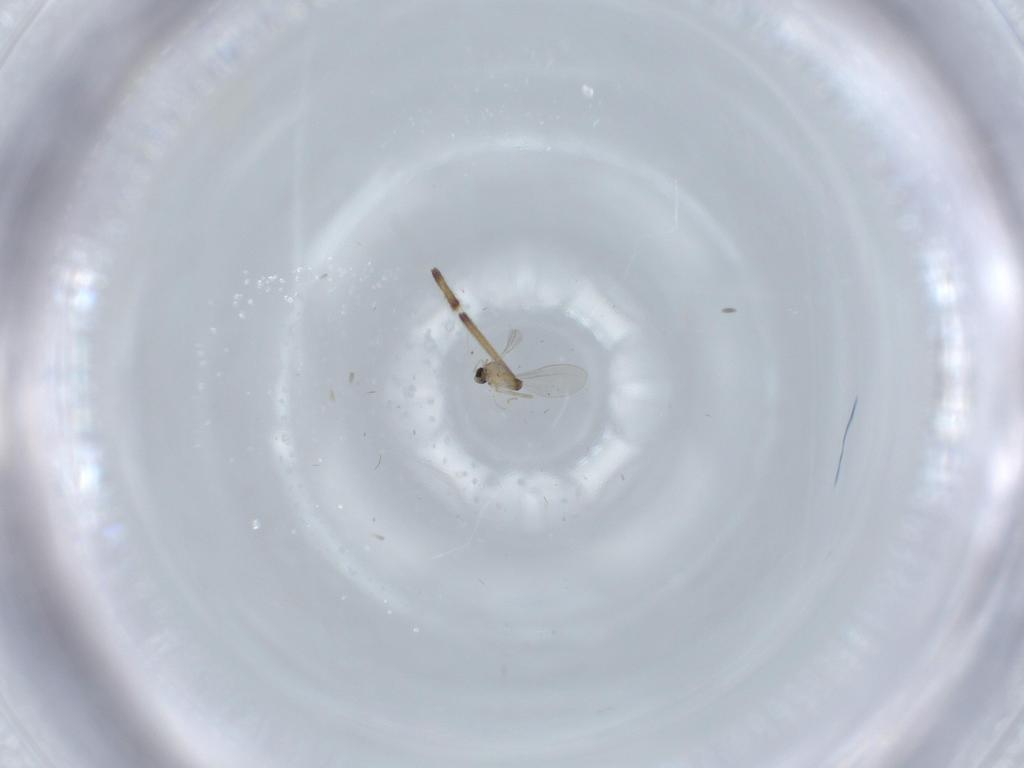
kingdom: Animalia
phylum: Arthropoda
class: Insecta
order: Diptera
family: Cecidomyiidae
